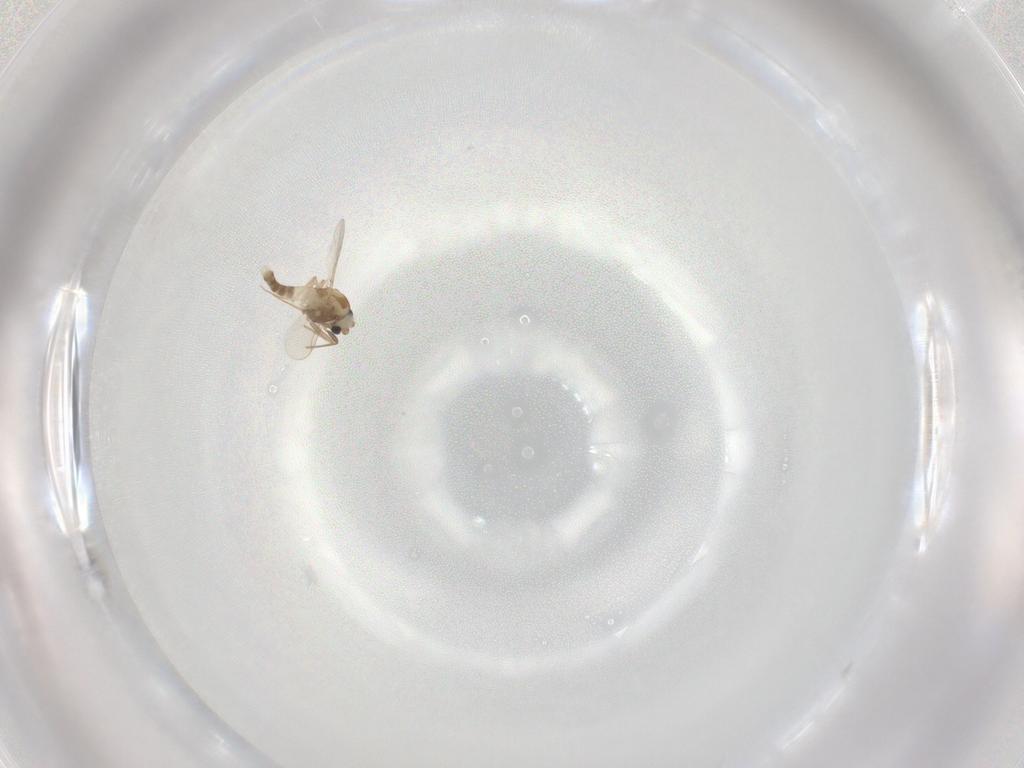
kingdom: Animalia
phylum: Arthropoda
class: Insecta
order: Diptera
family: Chironomidae
